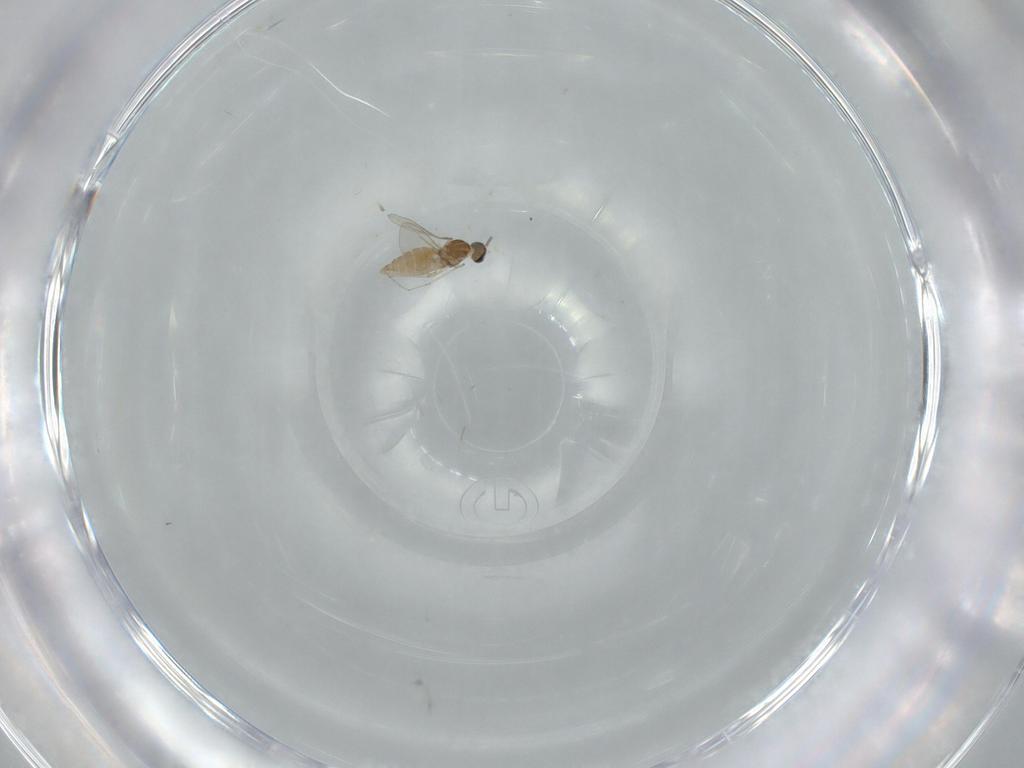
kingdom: Animalia
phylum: Arthropoda
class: Insecta
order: Diptera
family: Cecidomyiidae
